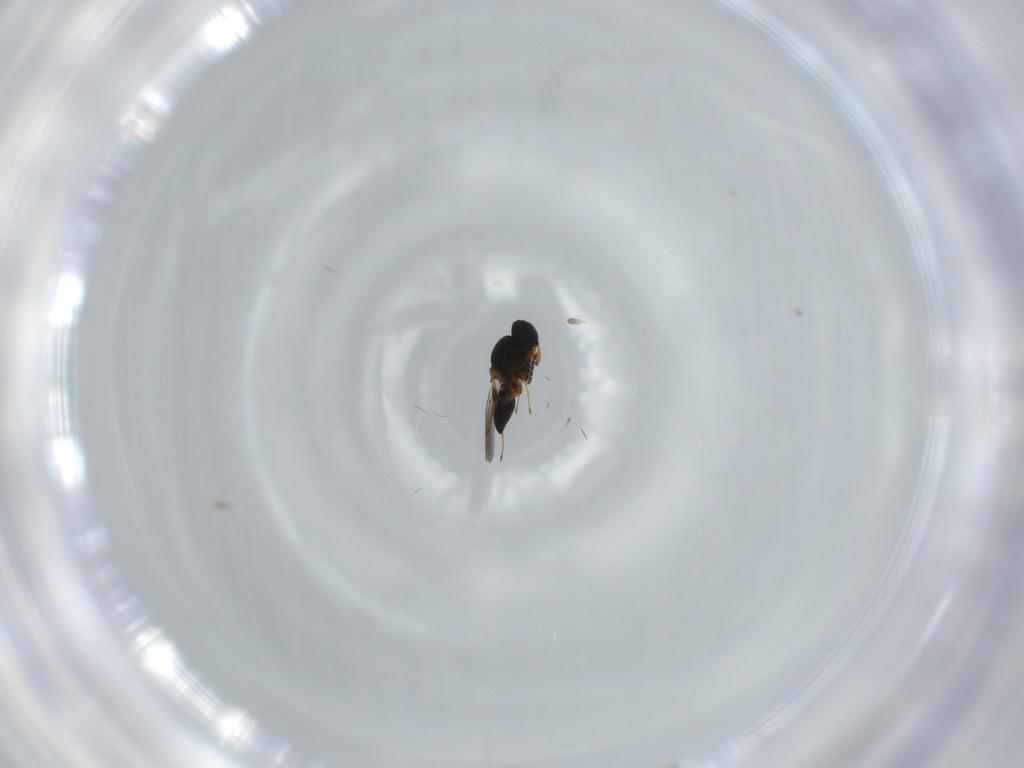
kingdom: Animalia
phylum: Arthropoda
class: Insecta
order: Hymenoptera
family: Platygastridae
